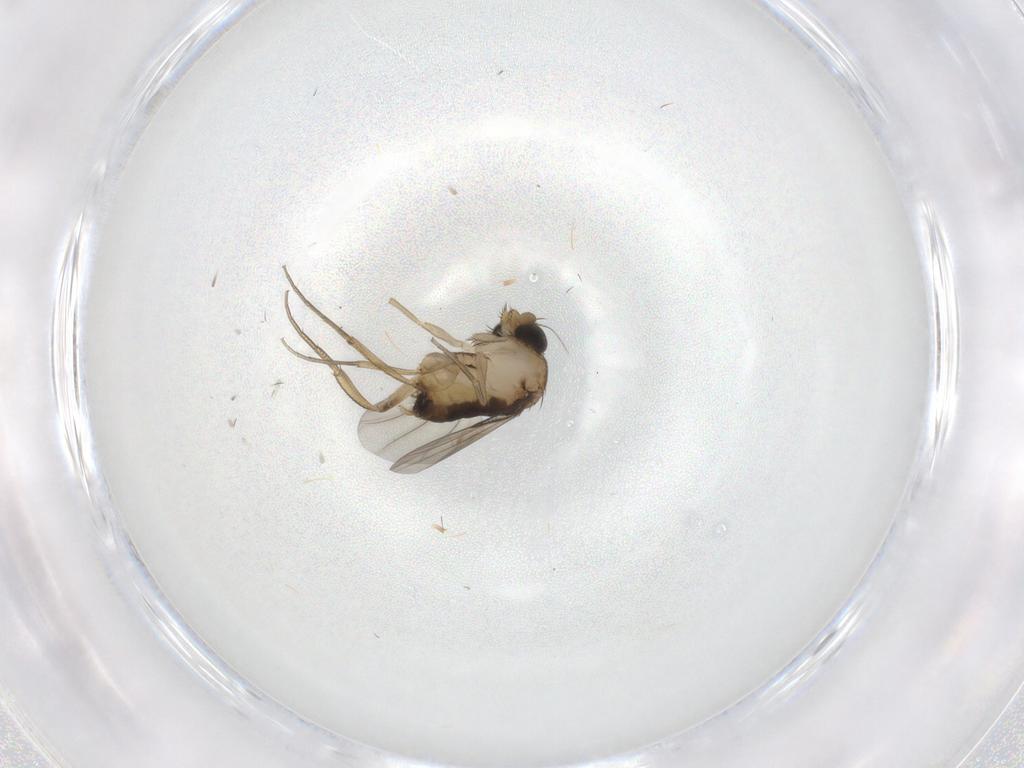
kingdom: Animalia
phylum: Arthropoda
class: Insecta
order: Diptera
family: Phoridae
